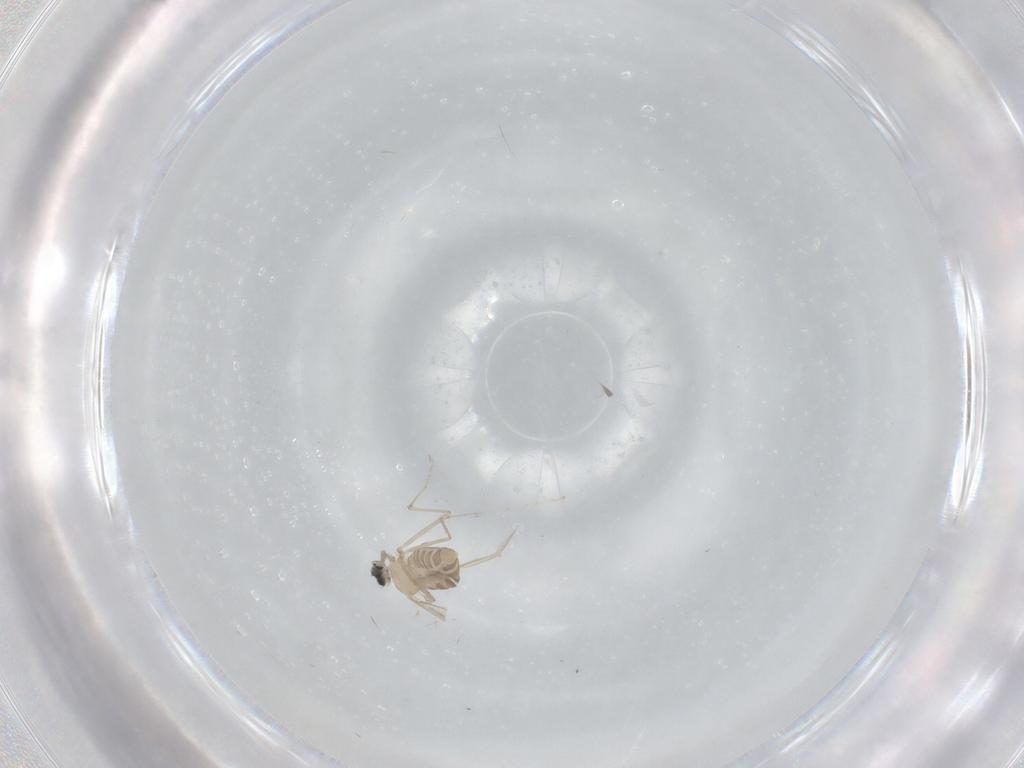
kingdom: Animalia
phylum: Arthropoda
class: Insecta
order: Diptera
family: Cecidomyiidae
